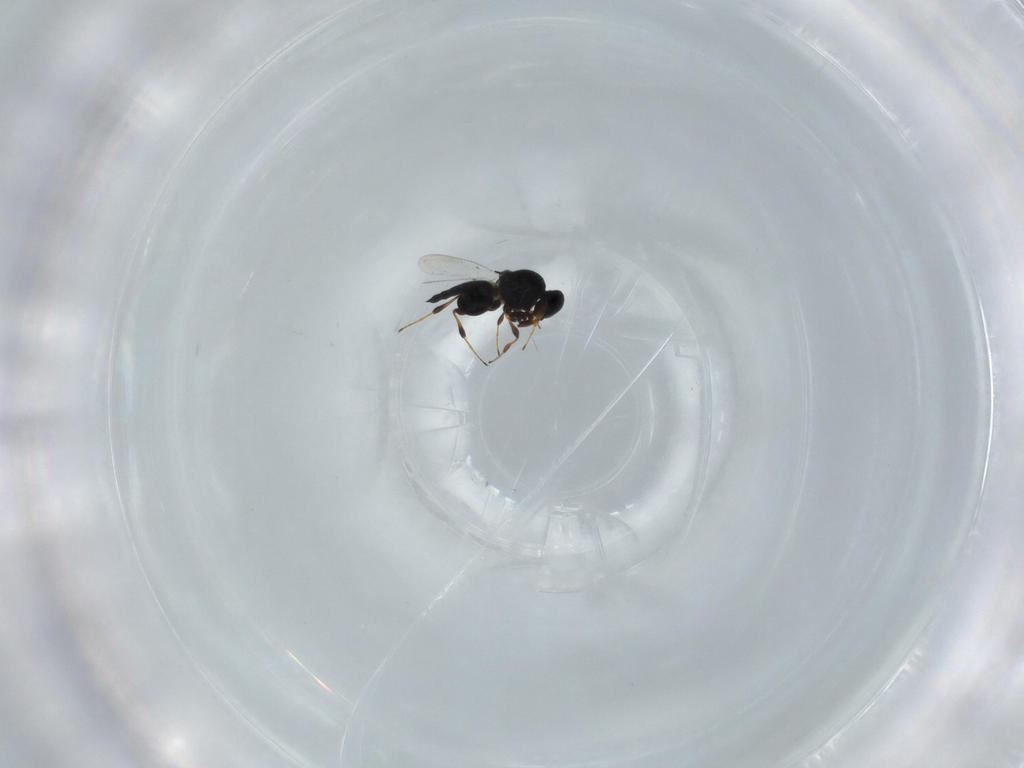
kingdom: Animalia
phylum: Arthropoda
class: Insecta
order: Hymenoptera
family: Platygastridae
